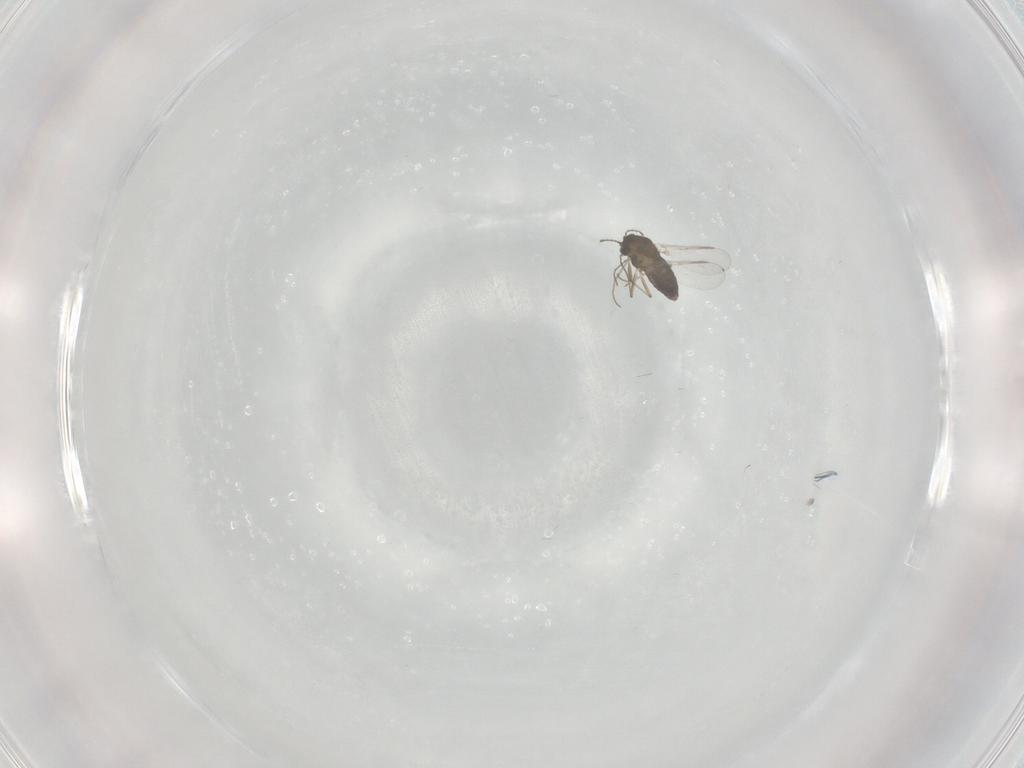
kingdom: Animalia
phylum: Arthropoda
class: Insecta
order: Diptera
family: Chironomidae
